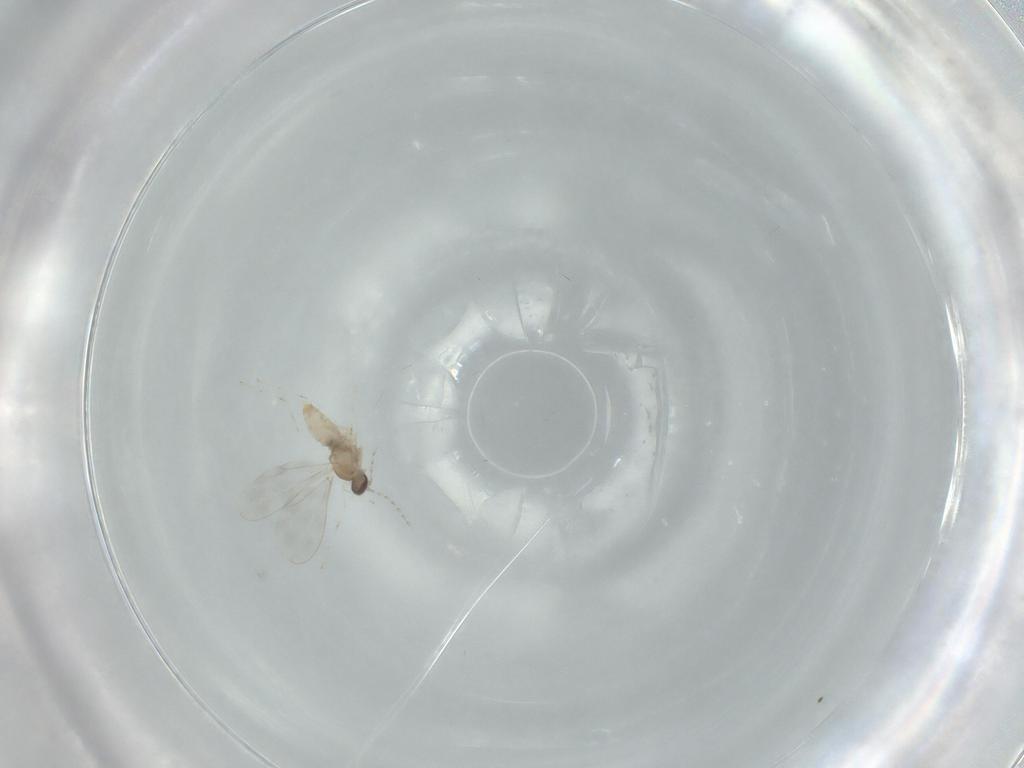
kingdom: Animalia
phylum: Arthropoda
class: Insecta
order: Diptera
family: Cecidomyiidae
